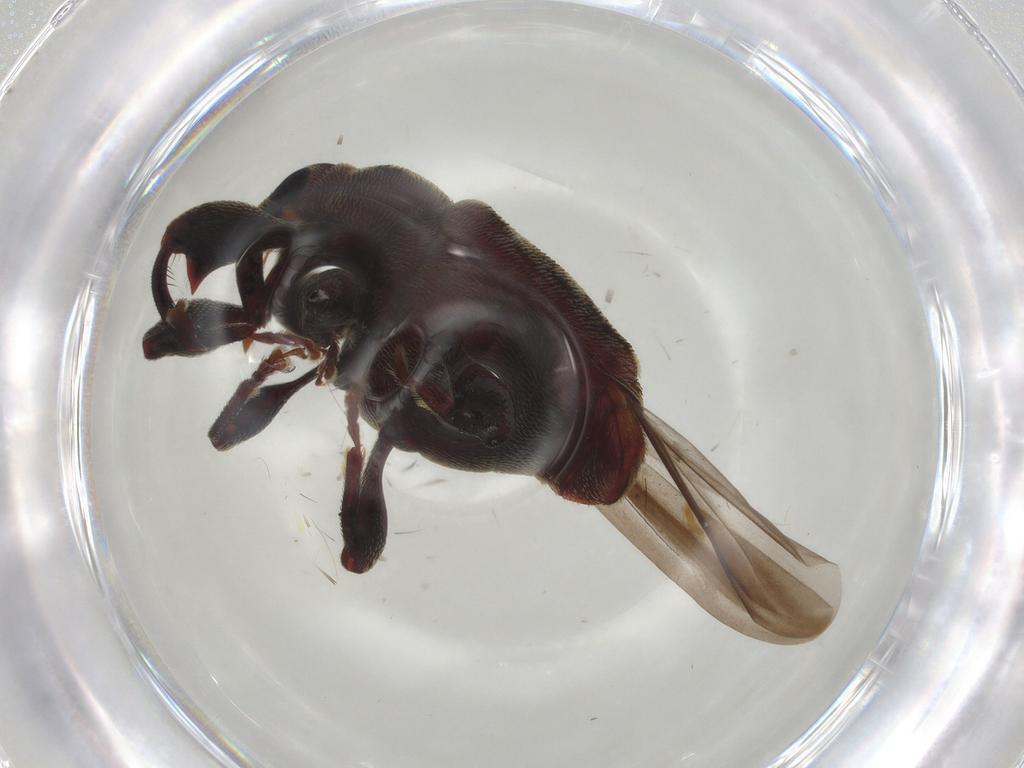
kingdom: Animalia
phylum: Arthropoda
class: Insecta
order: Coleoptera
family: Curculionidae
